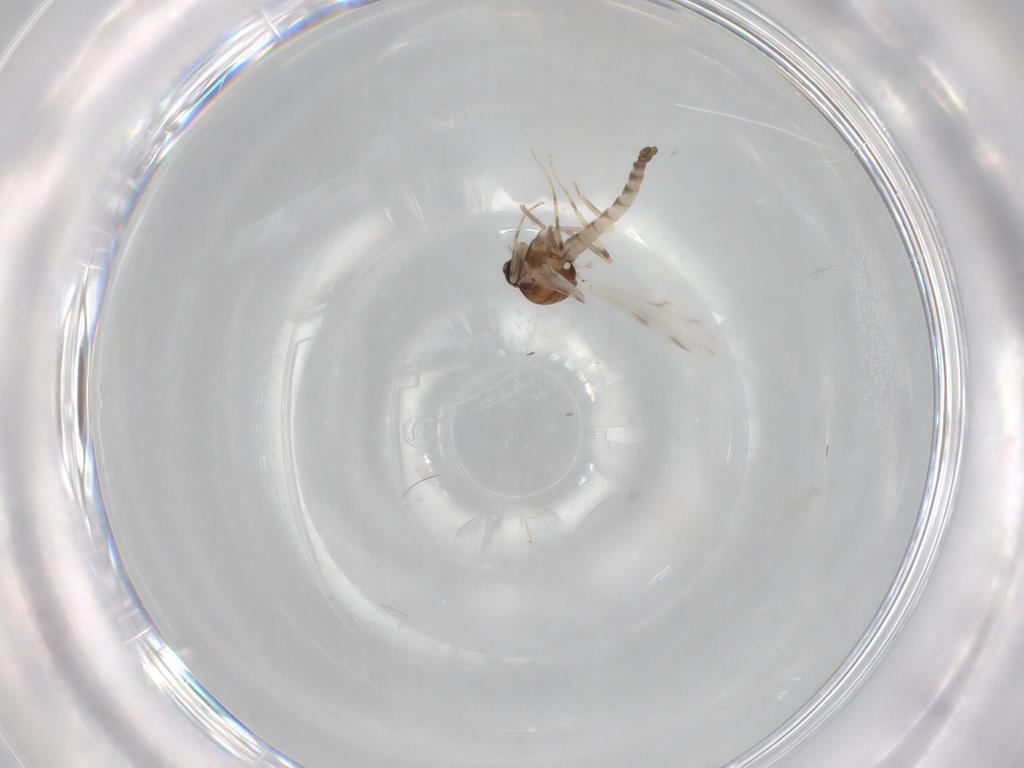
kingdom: Animalia
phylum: Arthropoda
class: Insecta
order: Diptera
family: Ceratopogonidae
